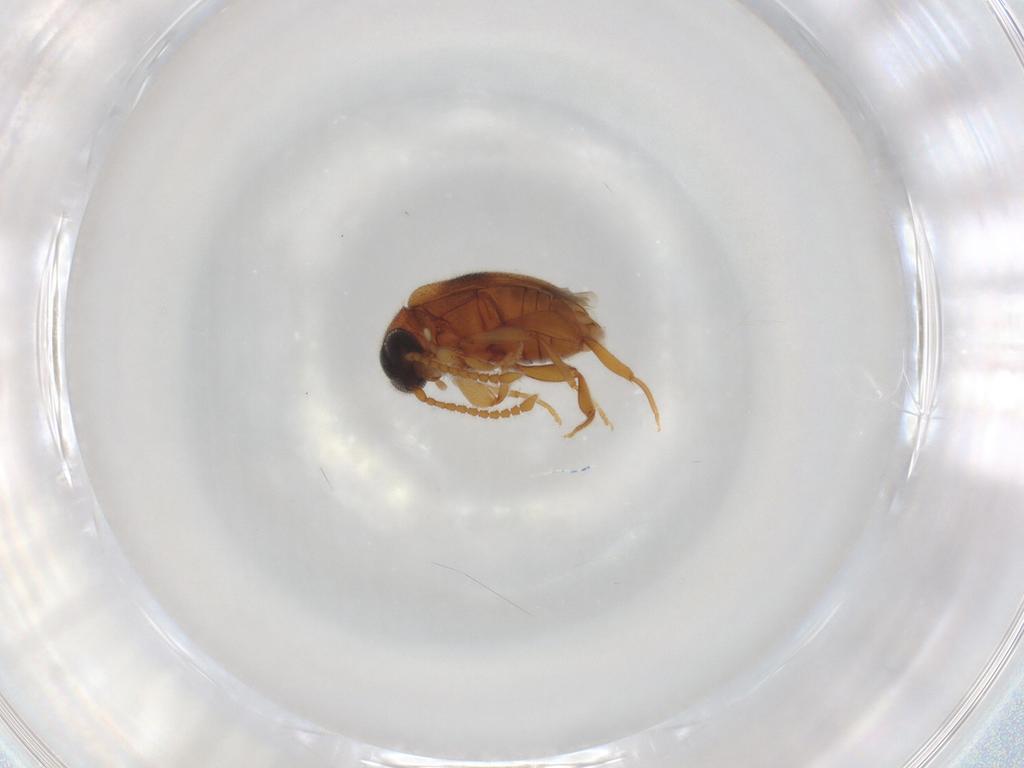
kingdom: Animalia
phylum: Arthropoda
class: Insecta
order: Coleoptera
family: Aderidae
